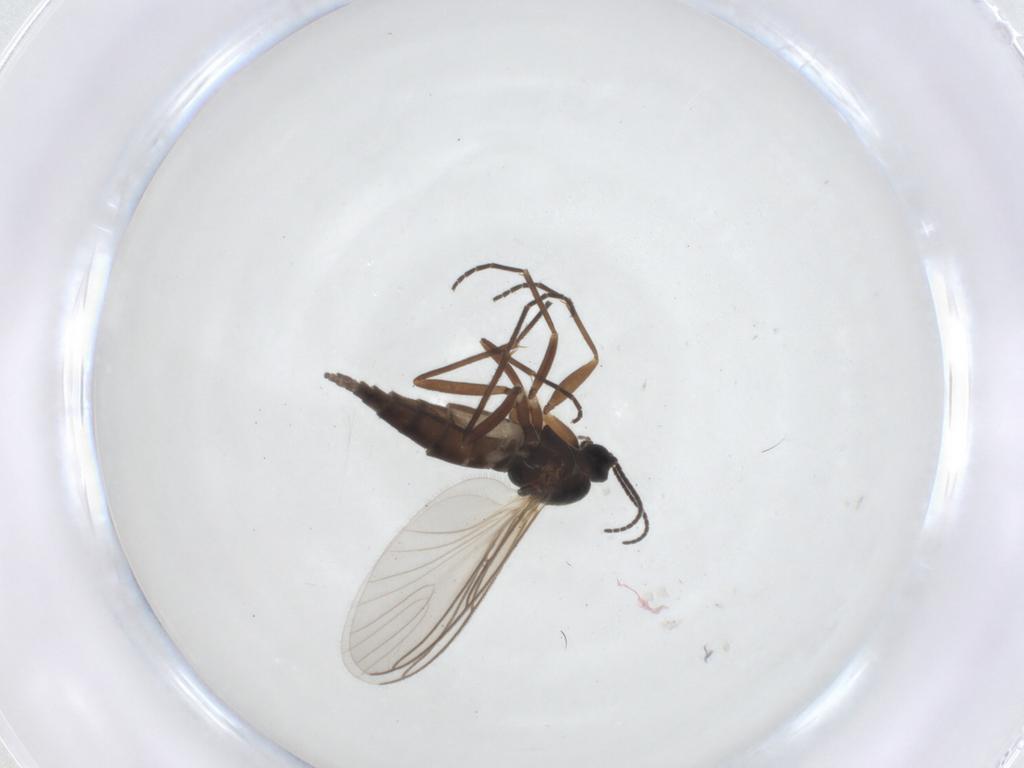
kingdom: Animalia
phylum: Arthropoda
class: Insecta
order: Diptera
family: Sciaridae
